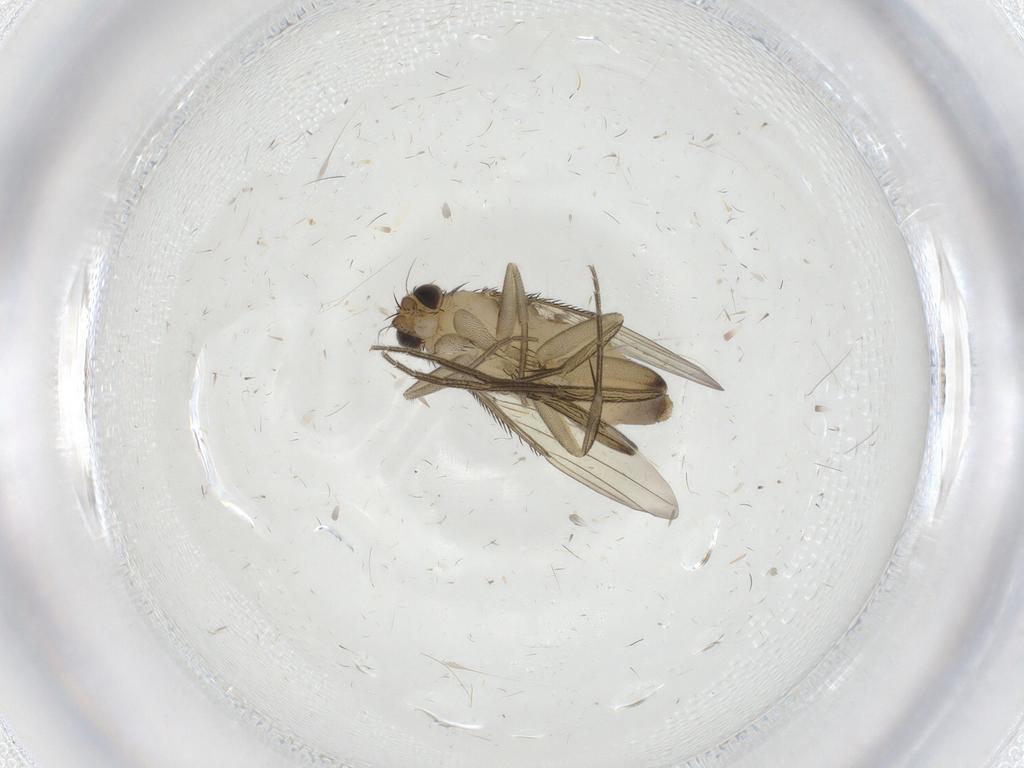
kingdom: Animalia
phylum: Arthropoda
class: Insecta
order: Diptera
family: Phoridae
